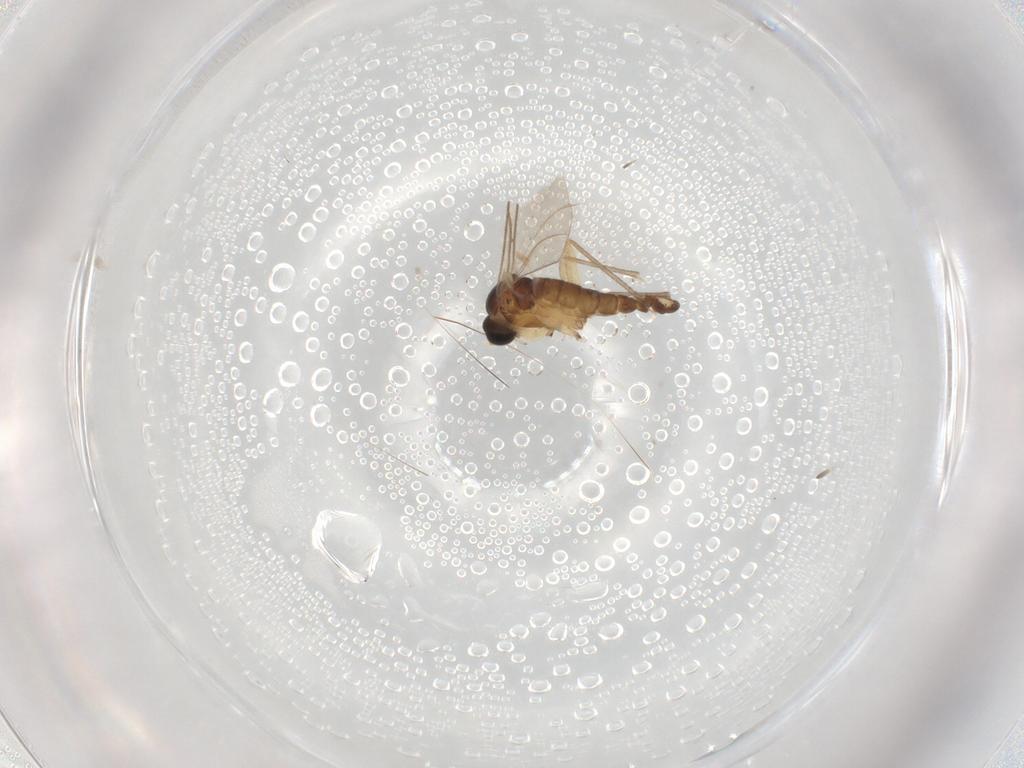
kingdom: Animalia
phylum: Arthropoda
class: Insecta
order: Diptera
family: Sciaridae
